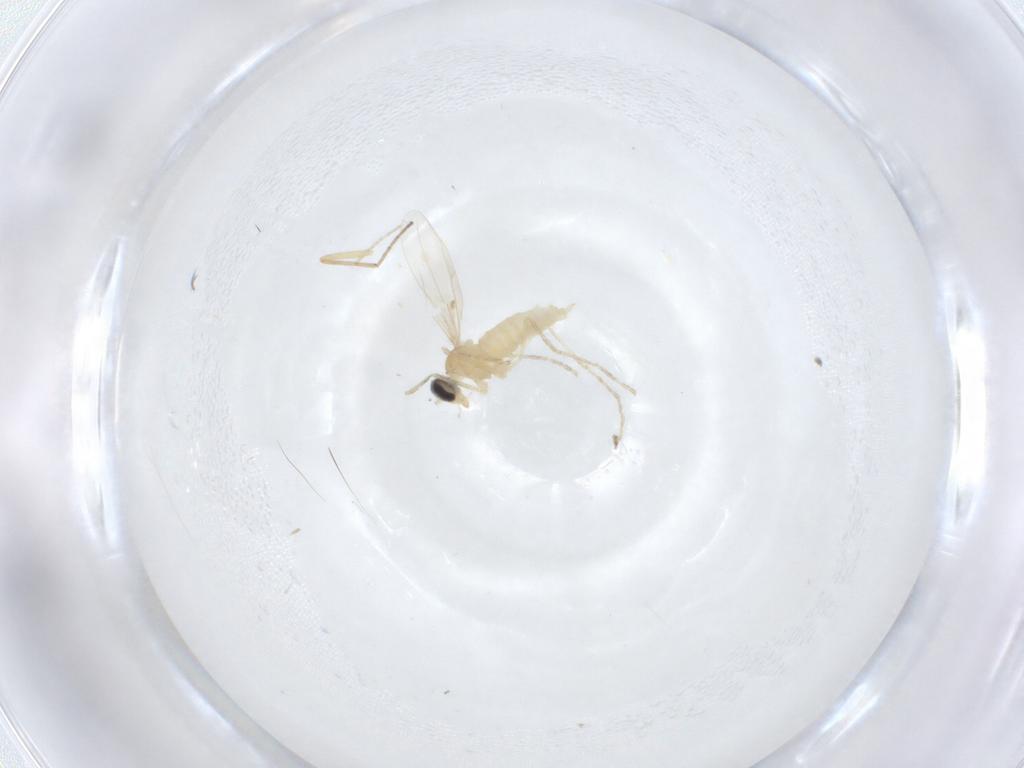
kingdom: Animalia
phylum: Arthropoda
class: Insecta
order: Diptera
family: Cecidomyiidae
